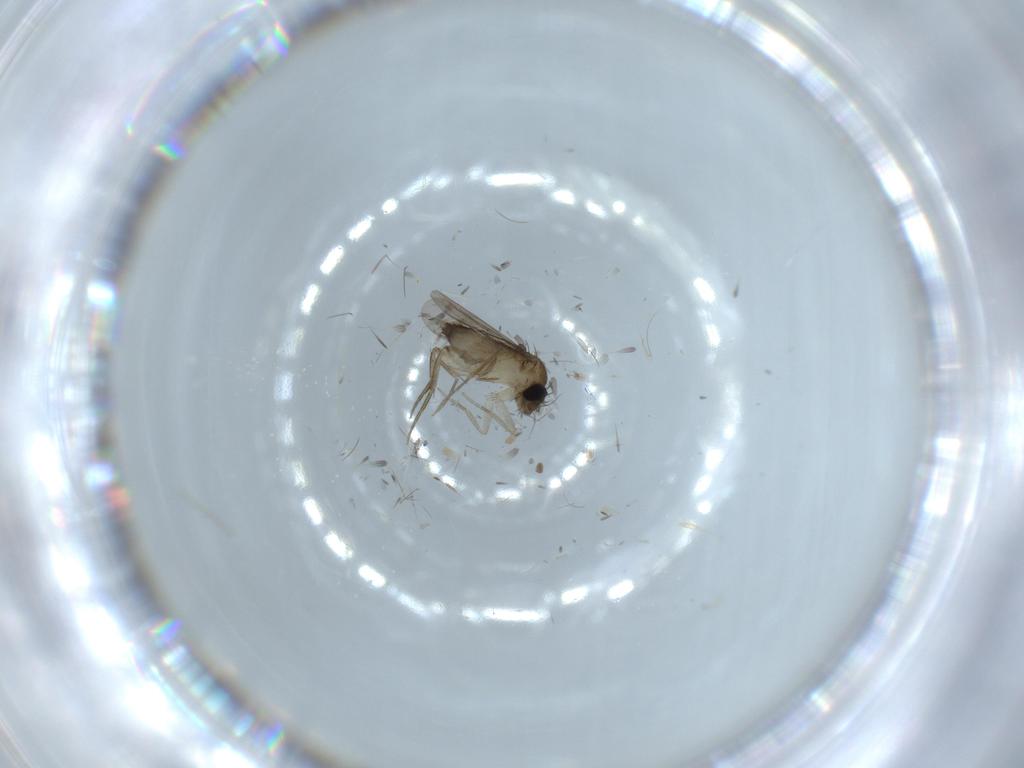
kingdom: Animalia
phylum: Arthropoda
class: Insecta
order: Diptera
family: Phoridae
